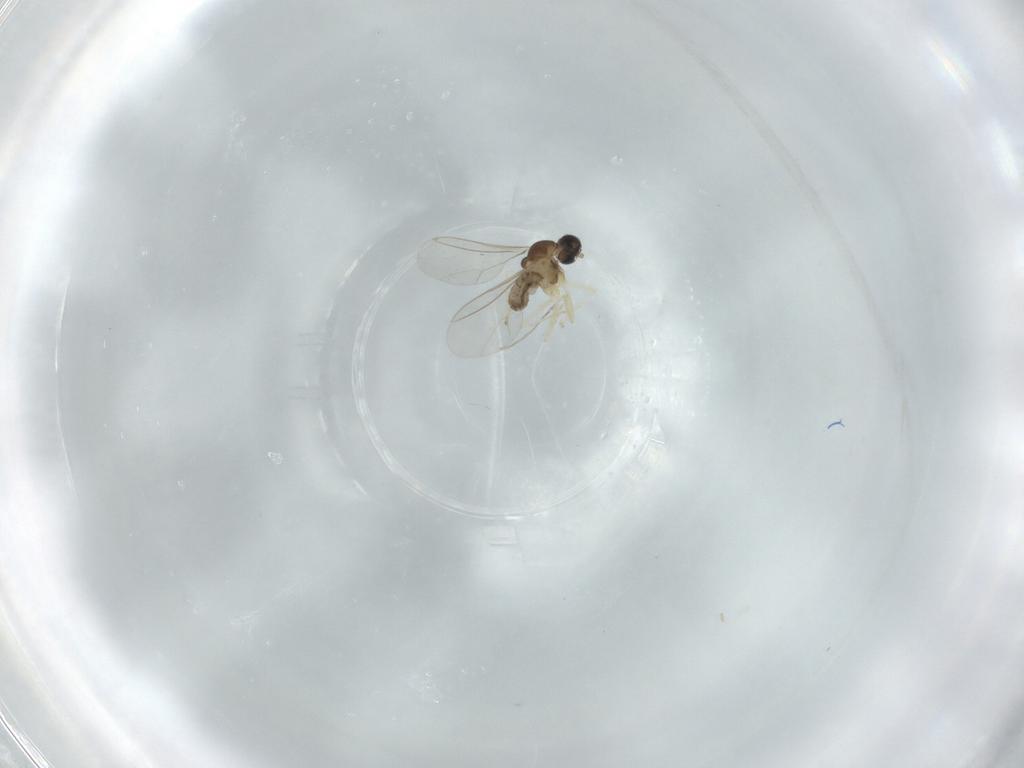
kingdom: Animalia
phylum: Arthropoda
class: Insecta
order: Diptera
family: Cecidomyiidae
